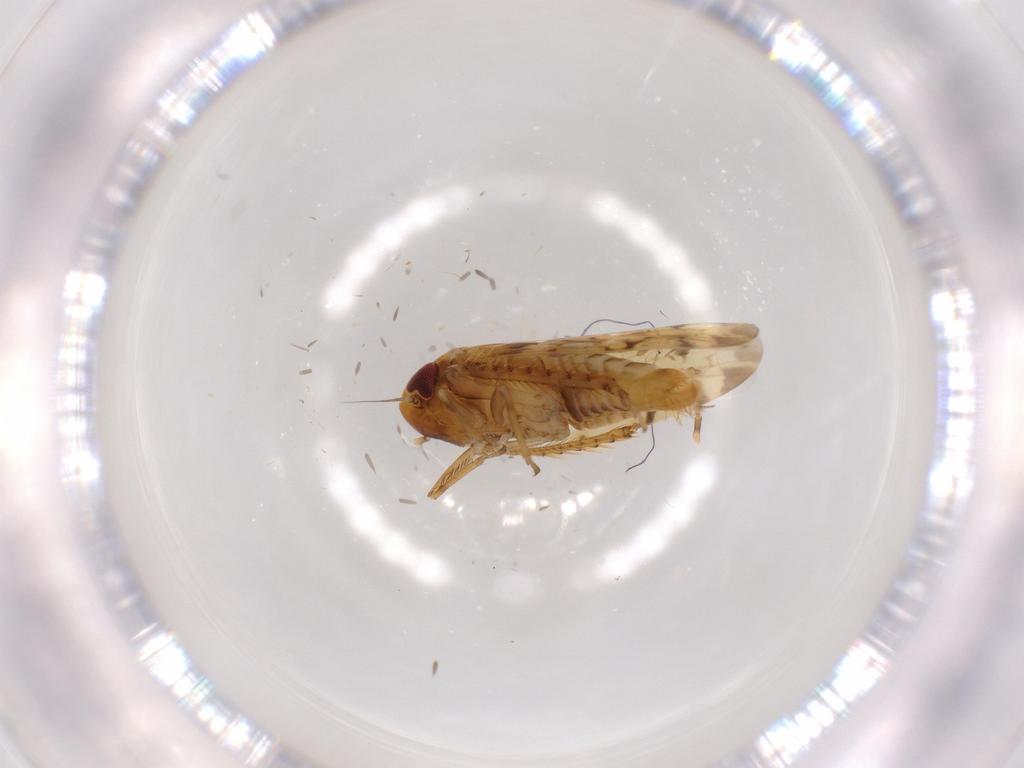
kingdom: Animalia
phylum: Arthropoda
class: Insecta
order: Hemiptera
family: Cicadellidae
